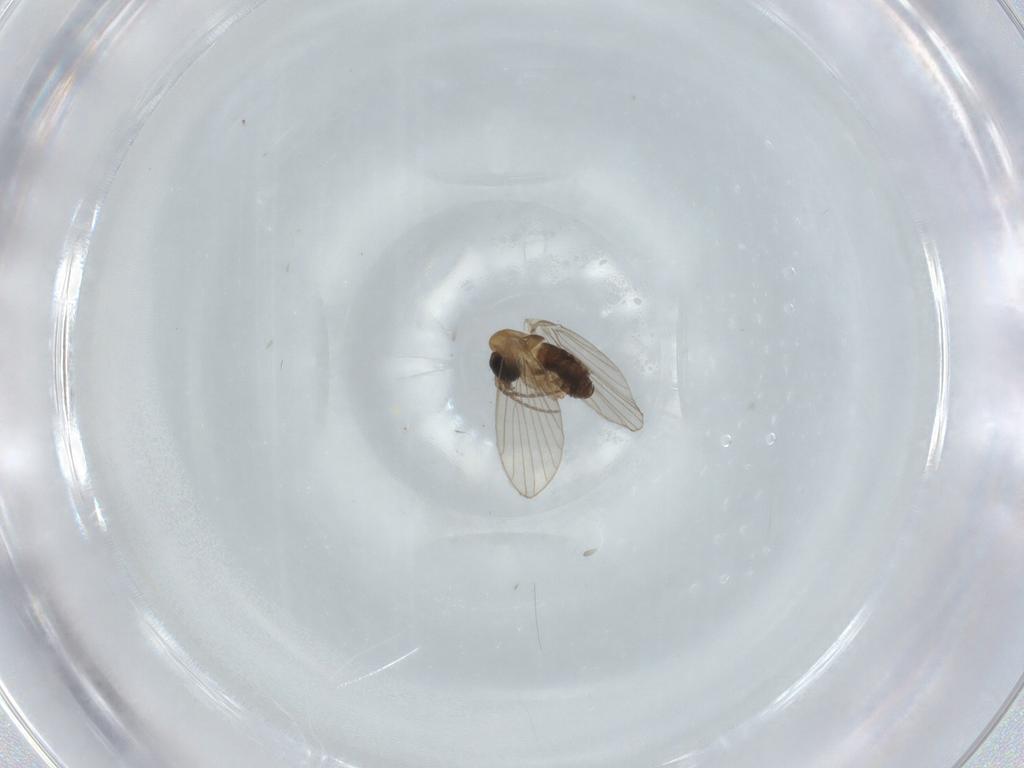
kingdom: Animalia
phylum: Arthropoda
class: Insecta
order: Diptera
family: Psychodidae
